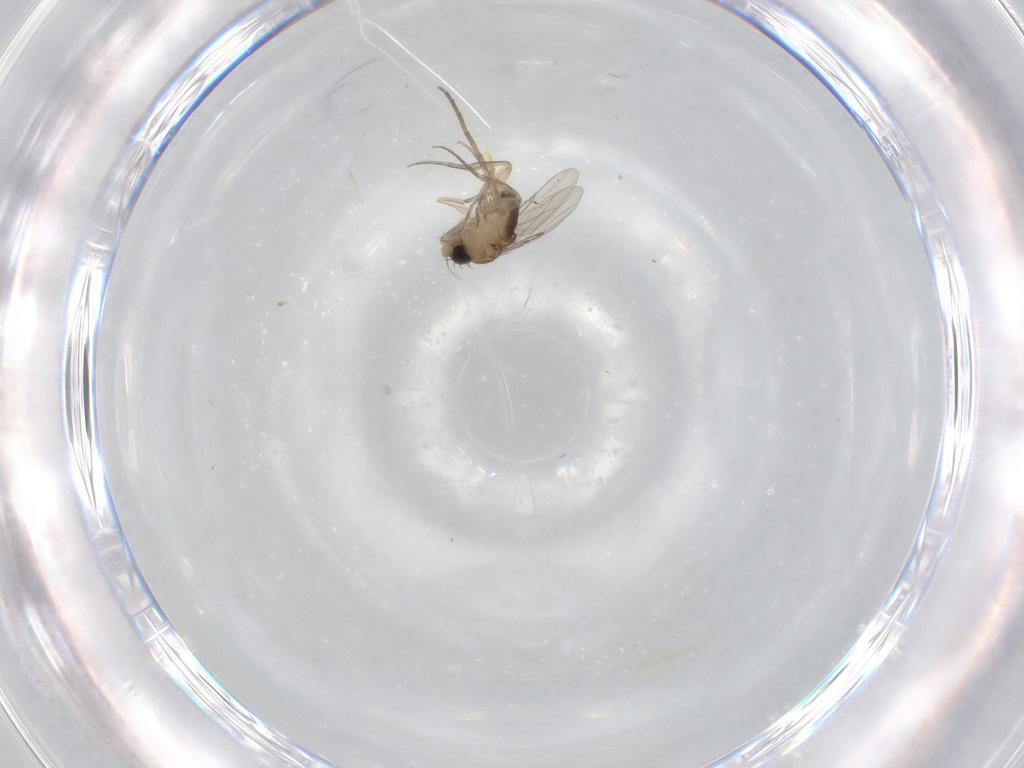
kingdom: Animalia
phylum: Arthropoda
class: Insecta
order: Diptera
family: Phoridae
